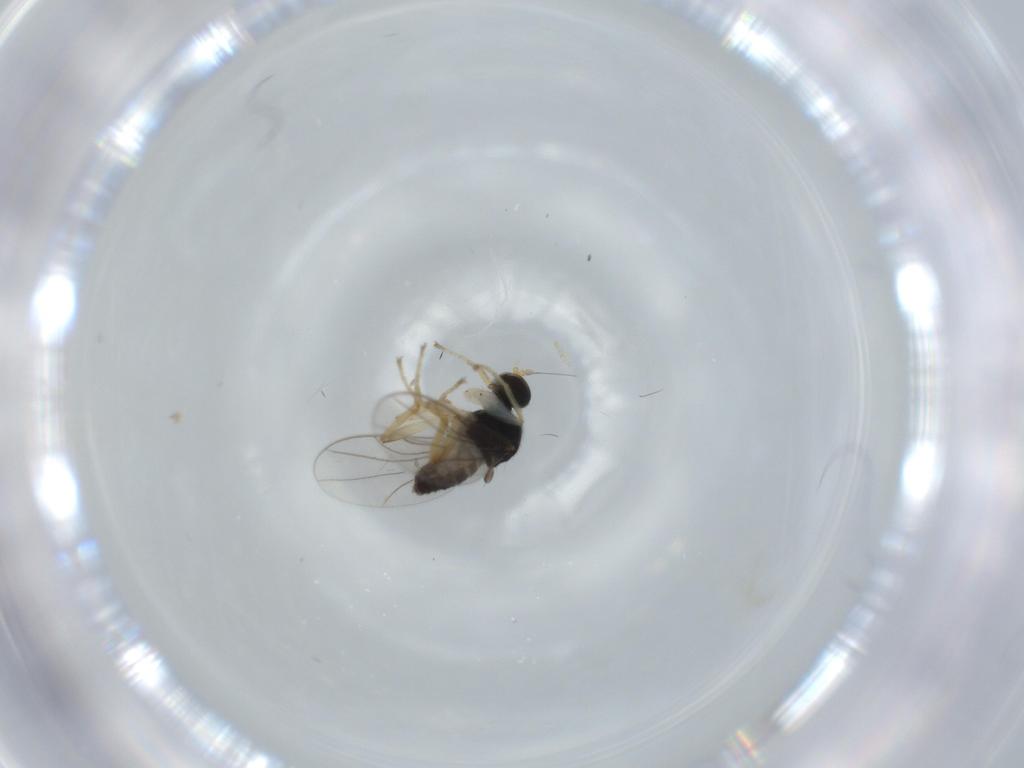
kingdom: Animalia
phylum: Arthropoda
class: Insecta
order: Diptera
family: Hybotidae
